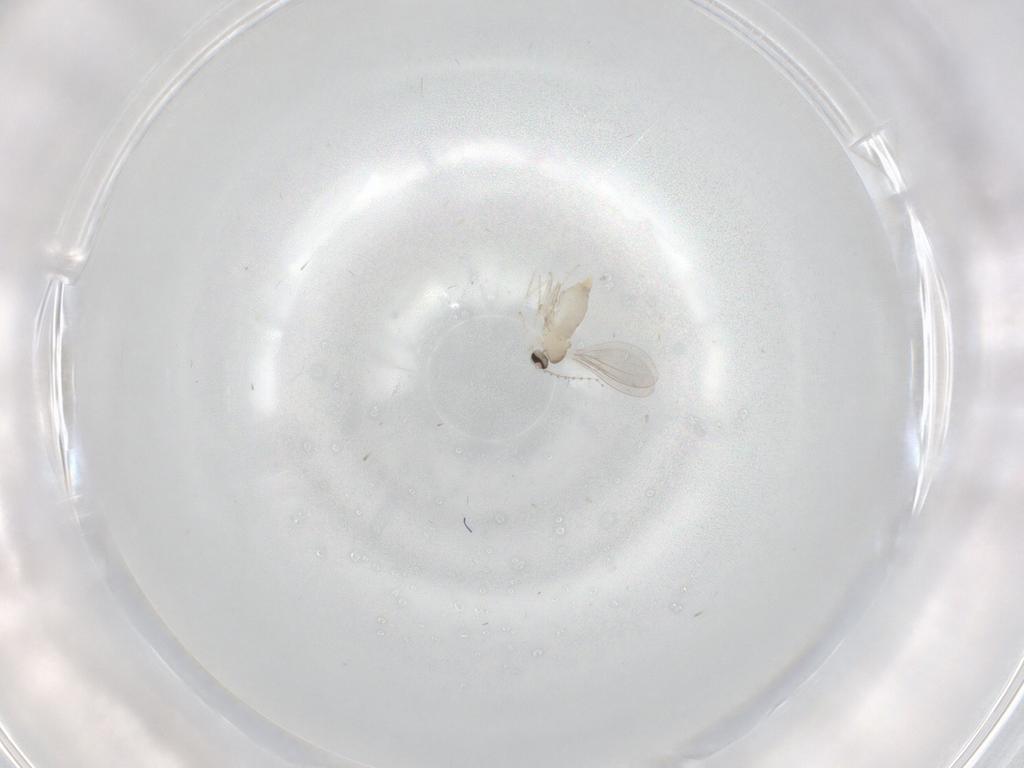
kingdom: Animalia
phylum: Arthropoda
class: Insecta
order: Diptera
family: Cecidomyiidae
